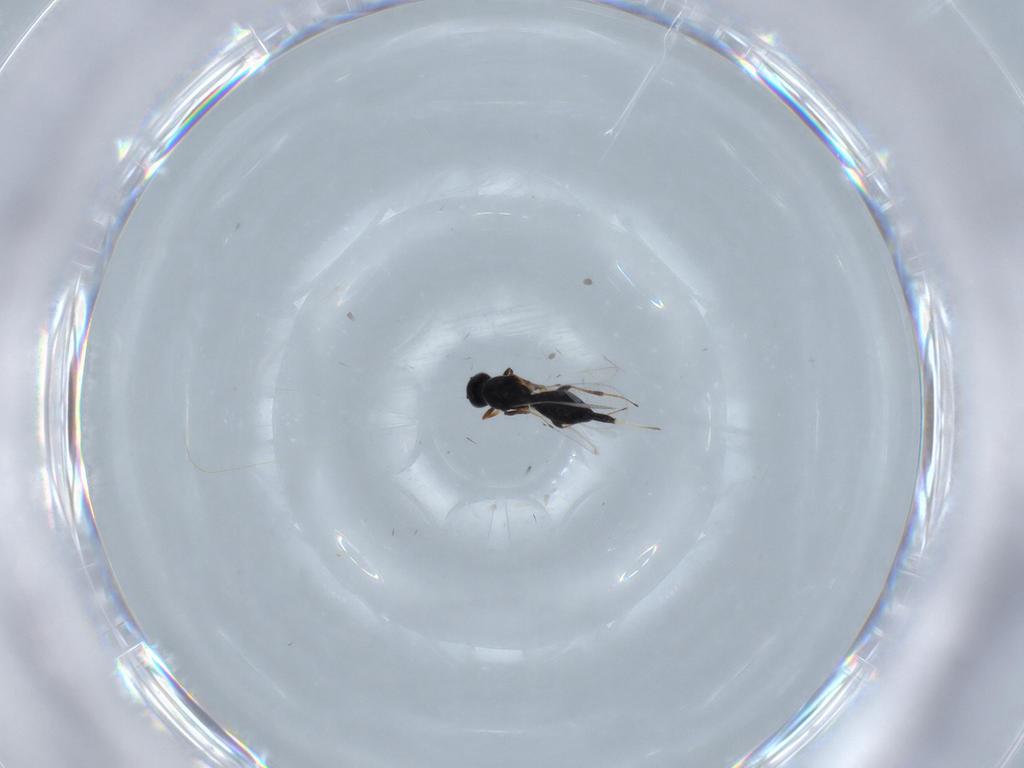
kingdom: Animalia
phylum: Arthropoda
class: Insecta
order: Hymenoptera
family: Platygastridae
